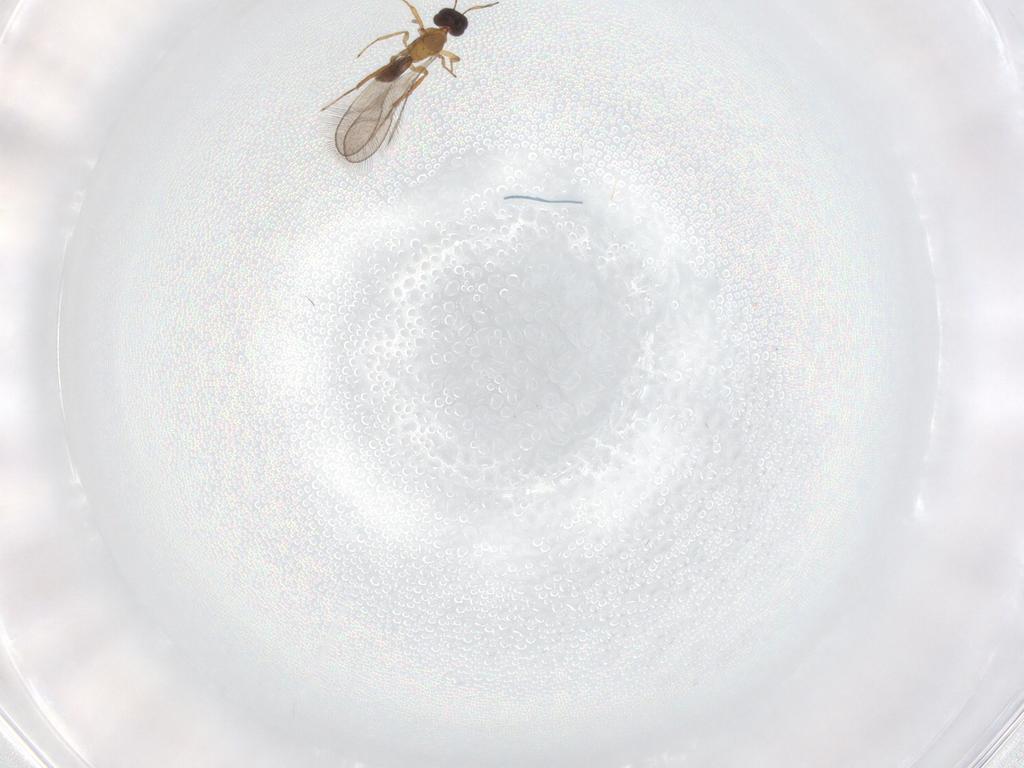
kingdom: Animalia
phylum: Arthropoda
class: Insecta
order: Hymenoptera
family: Mymaridae
